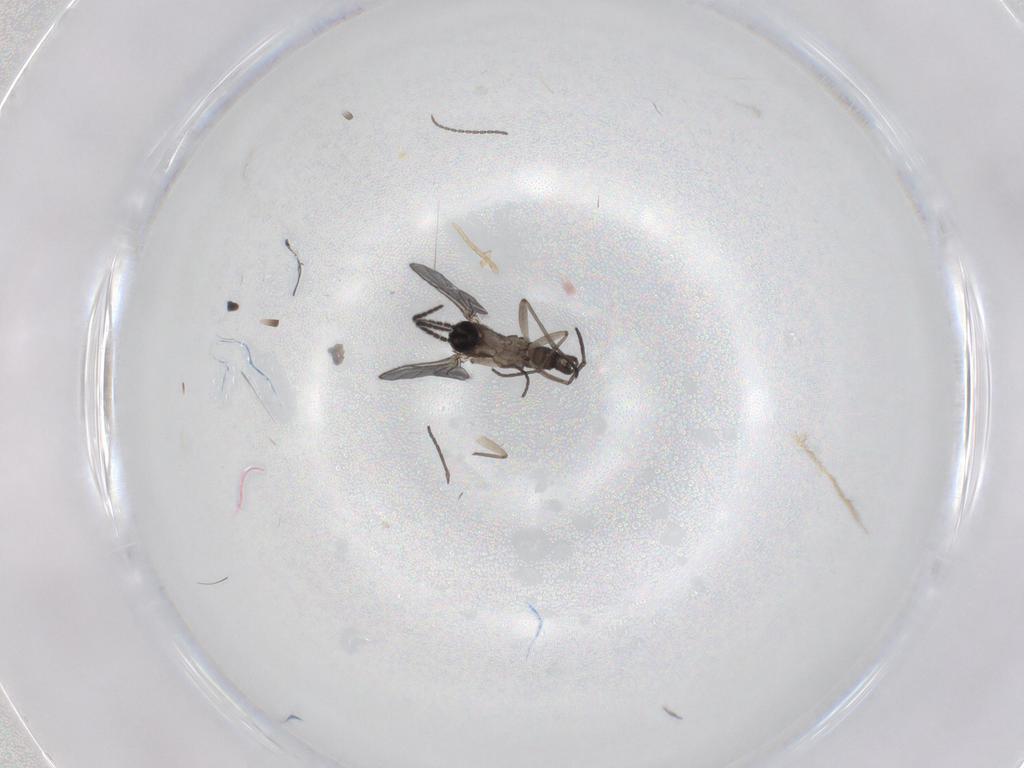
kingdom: Animalia
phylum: Arthropoda
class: Insecta
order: Diptera
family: Sciaridae
